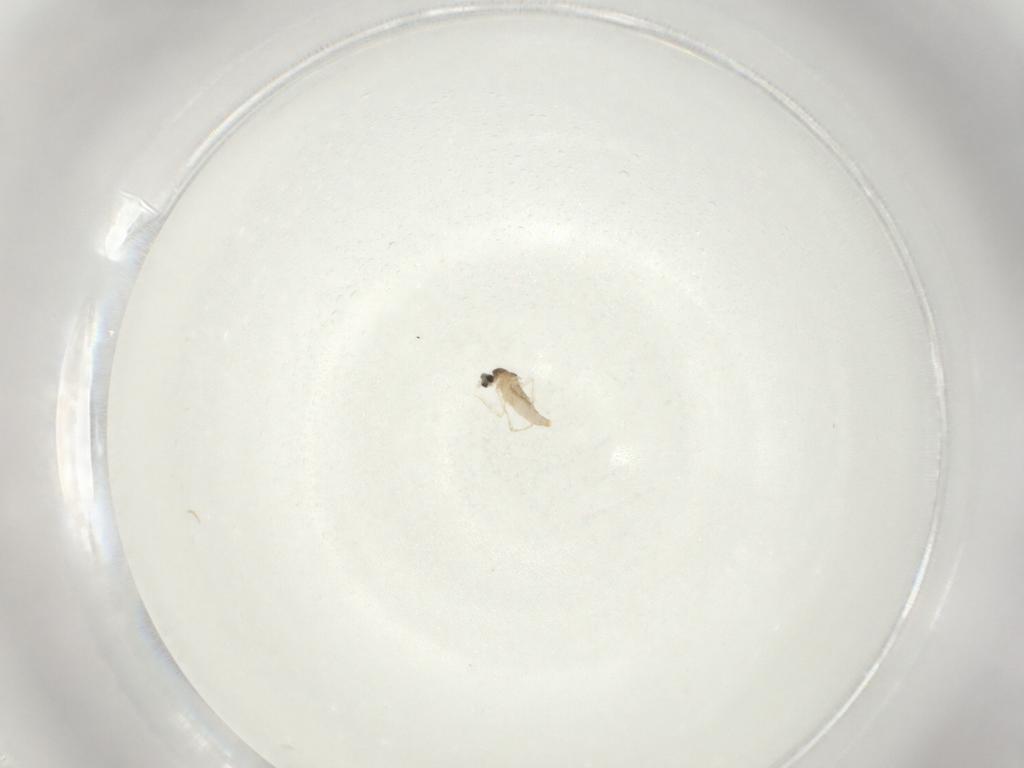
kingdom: Animalia
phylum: Arthropoda
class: Insecta
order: Diptera
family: Cecidomyiidae
